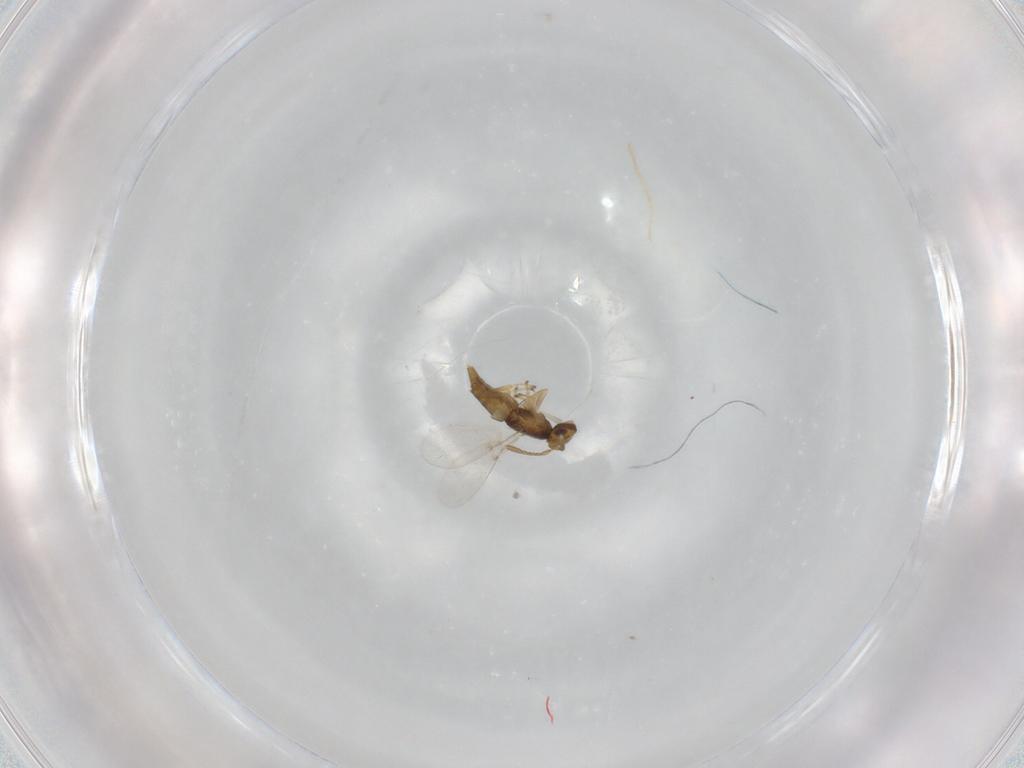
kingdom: Animalia
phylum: Arthropoda
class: Insecta
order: Hymenoptera
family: Encyrtidae
